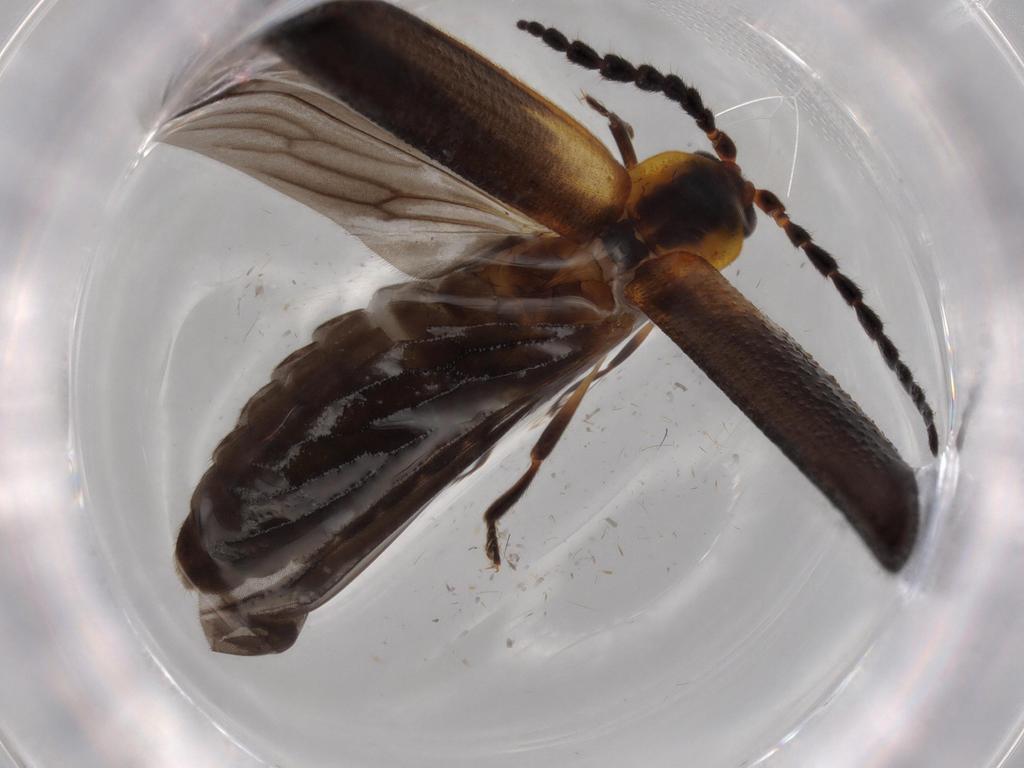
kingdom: Animalia
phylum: Arthropoda
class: Insecta
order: Coleoptera
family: Lycidae
